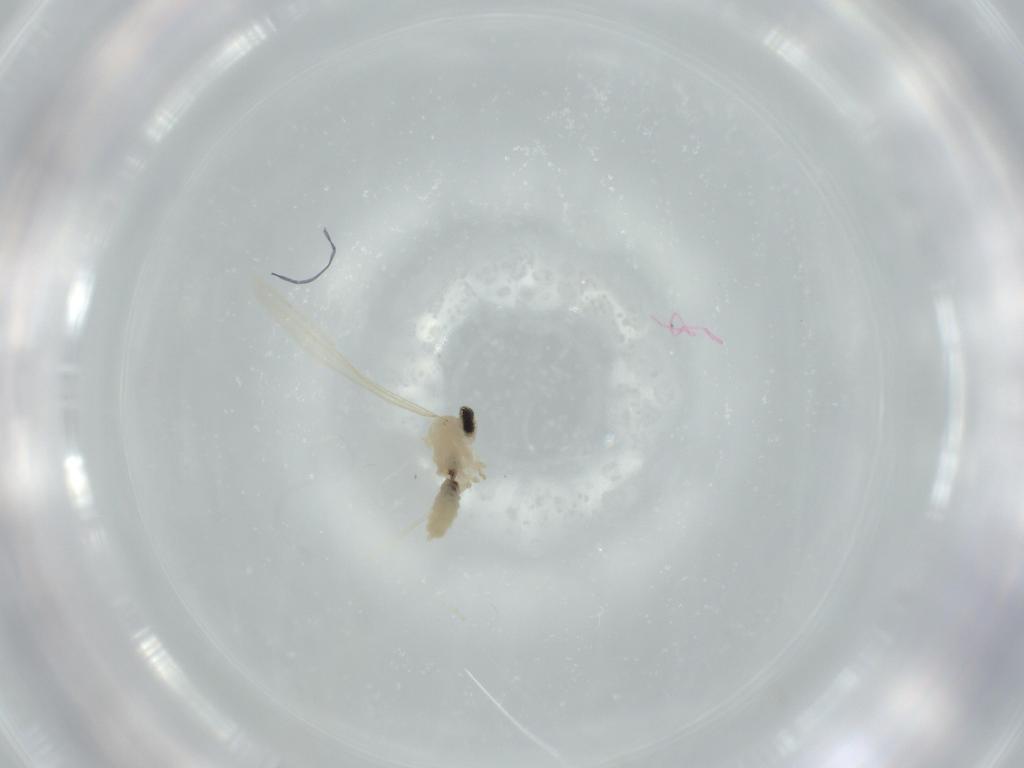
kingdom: Animalia
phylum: Arthropoda
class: Insecta
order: Diptera
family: Cecidomyiidae
